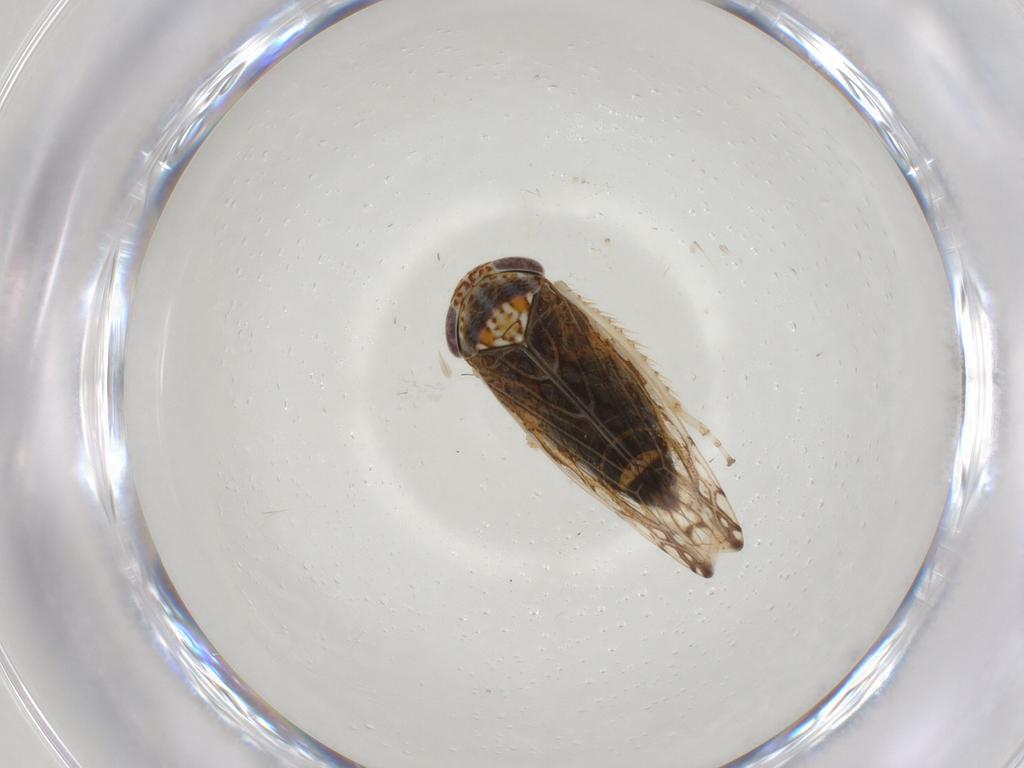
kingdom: Animalia
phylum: Arthropoda
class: Insecta
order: Hemiptera
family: Cicadellidae
